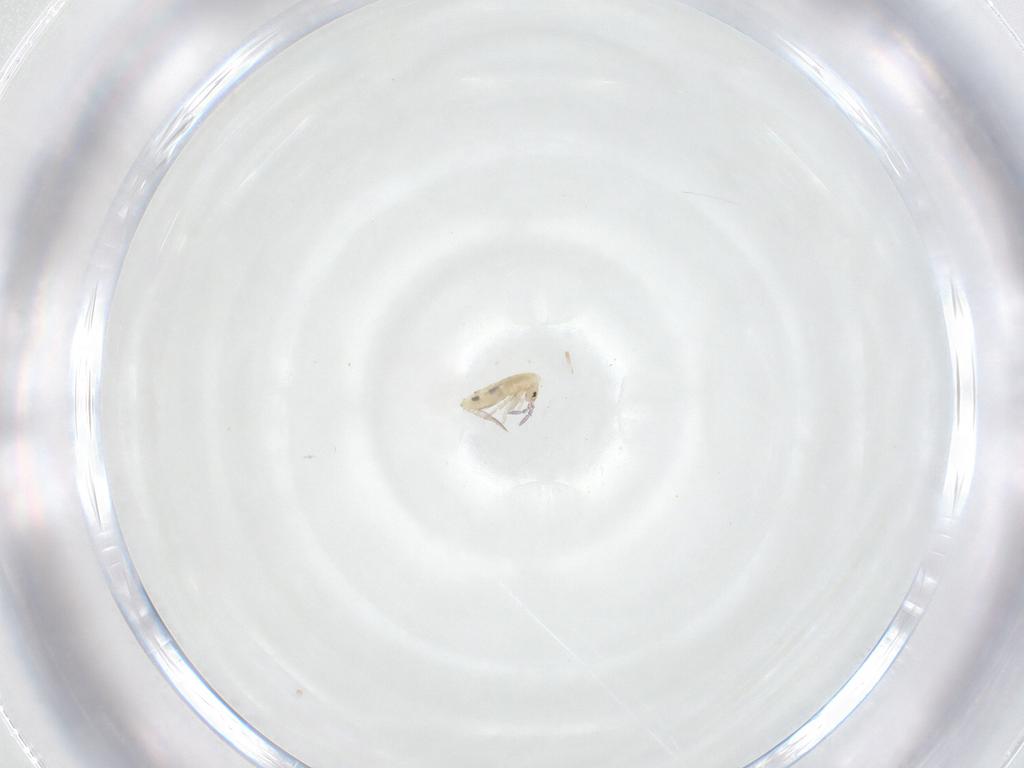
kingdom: Animalia
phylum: Arthropoda
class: Collembola
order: Entomobryomorpha
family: Entomobryidae
